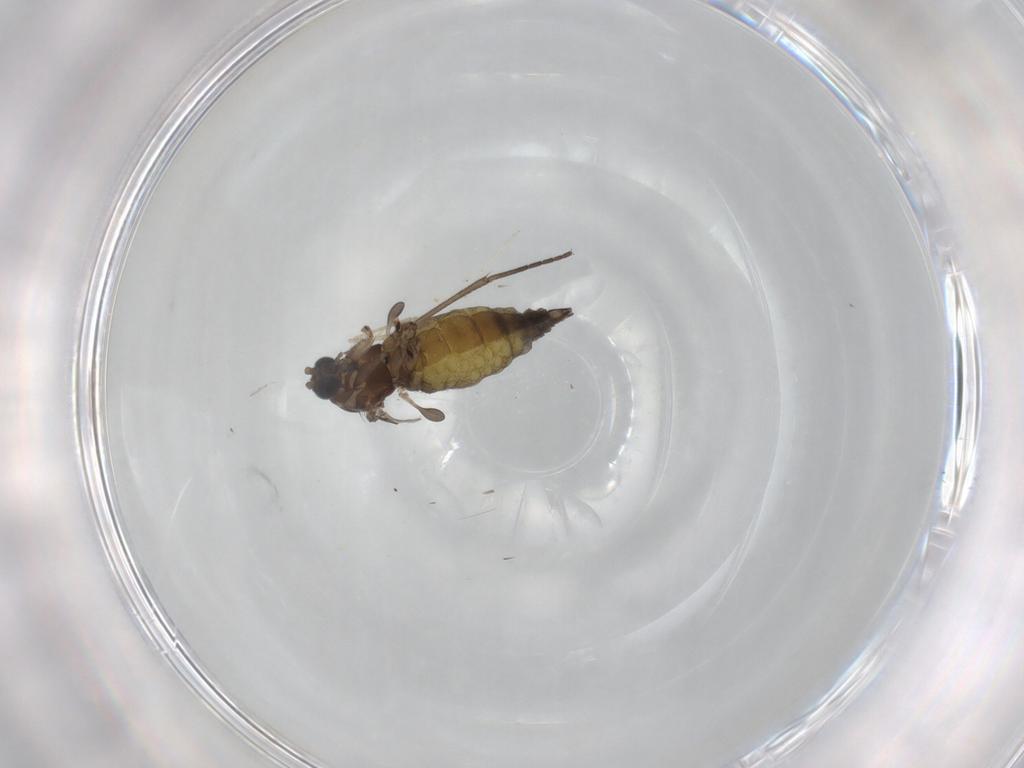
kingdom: Animalia
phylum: Arthropoda
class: Insecta
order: Diptera
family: Sciaridae
